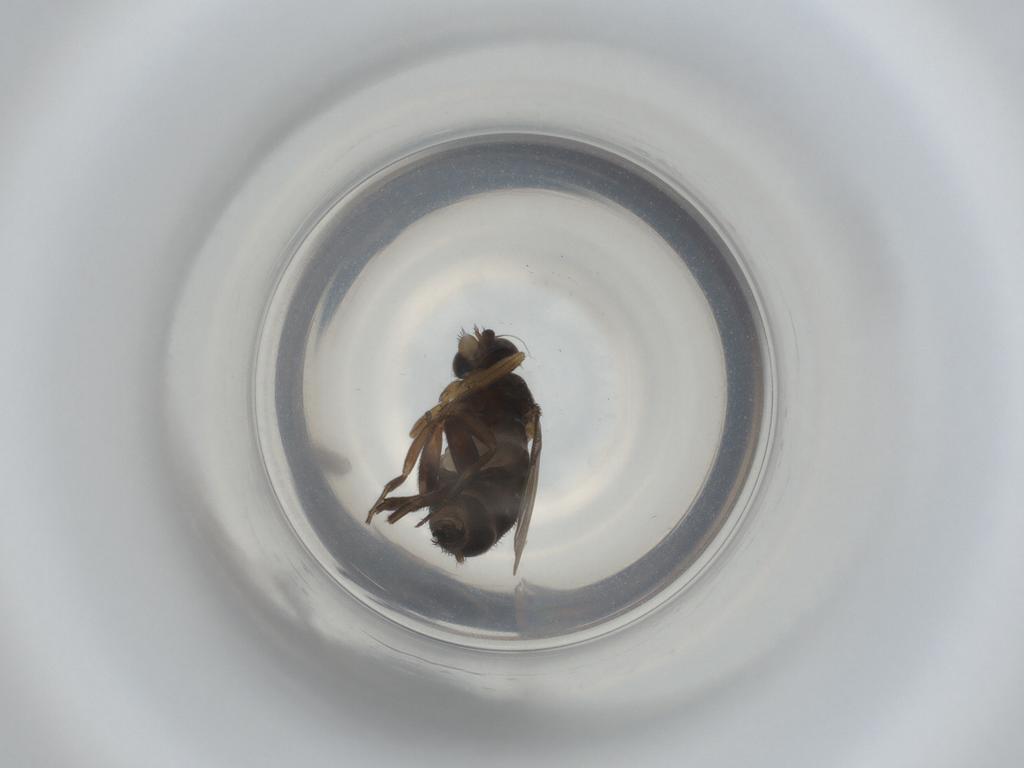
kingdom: Animalia
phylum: Arthropoda
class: Insecta
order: Diptera
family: Phoridae
